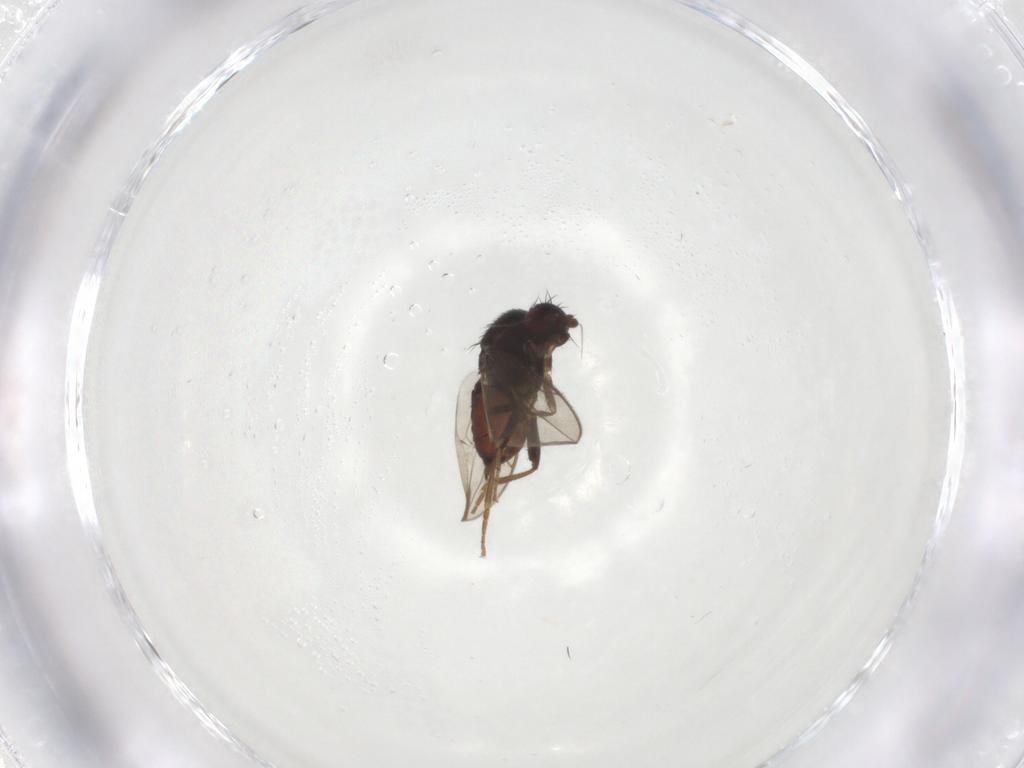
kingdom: Animalia
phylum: Arthropoda
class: Insecta
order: Diptera
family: Sphaeroceridae
